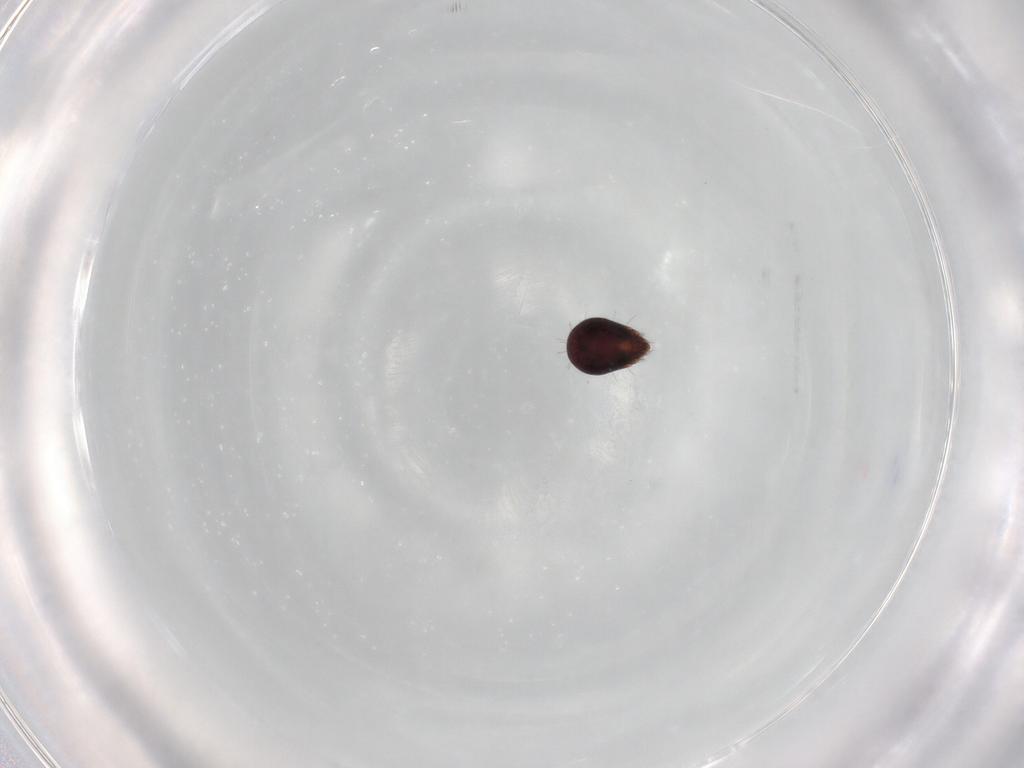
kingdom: Animalia
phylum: Arthropoda
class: Arachnida
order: Sarcoptiformes
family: Humerobatidae
